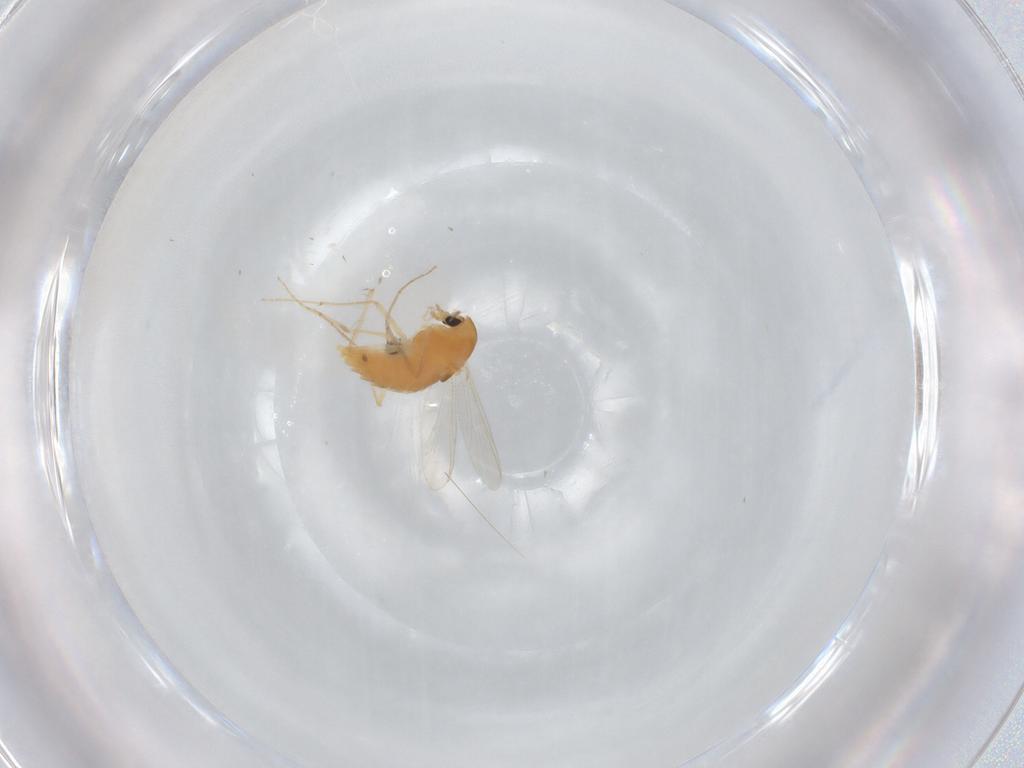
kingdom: Animalia
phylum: Arthropoda
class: Insecta
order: Diptera
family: Chironomidae
